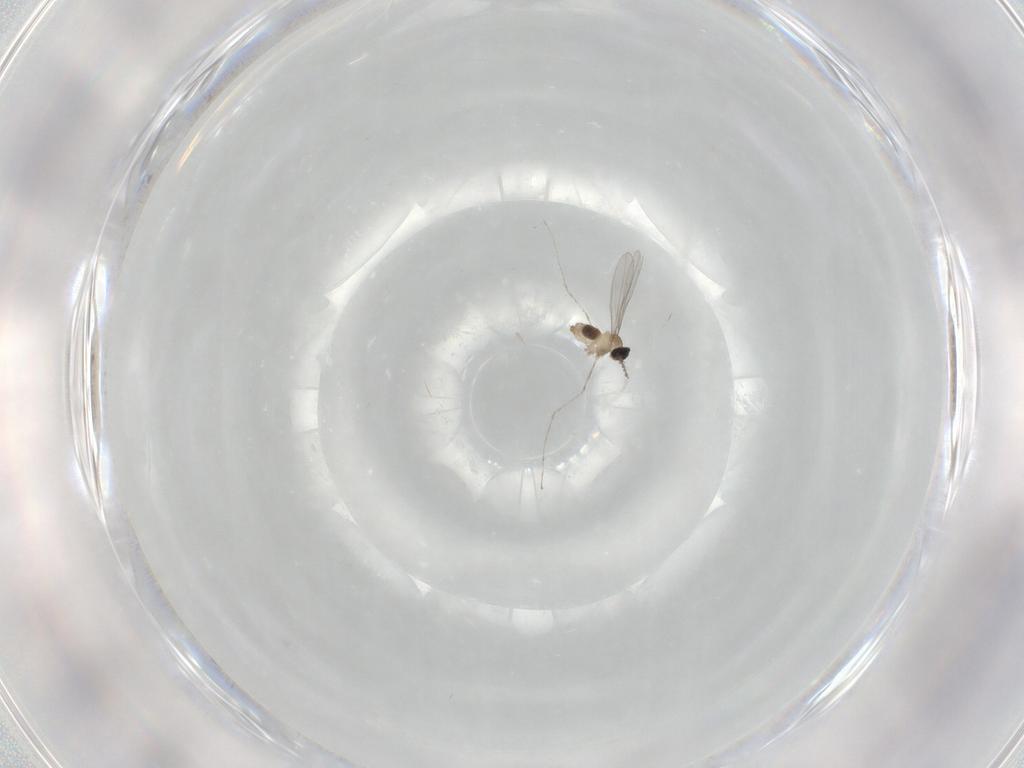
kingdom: Animalia
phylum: Arthropoda
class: Insecta
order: Diptera
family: Cecidomyiidae
